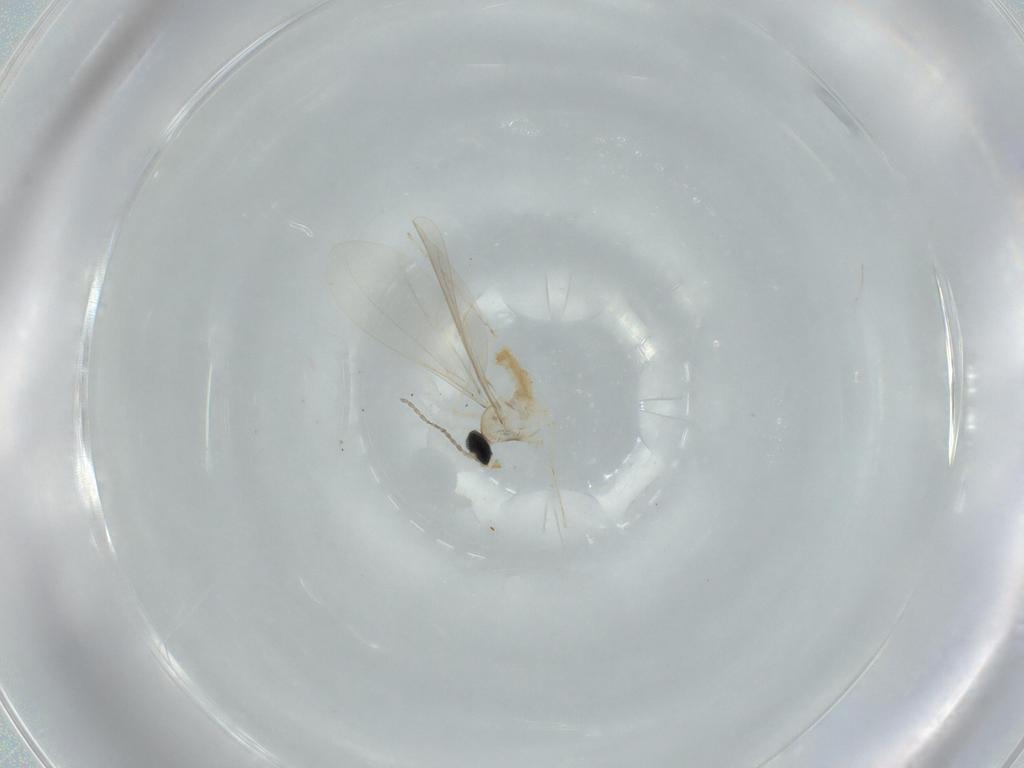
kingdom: Animalia
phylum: Arthropoda
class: Insecta
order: Diptera
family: Cecidomyiidae
